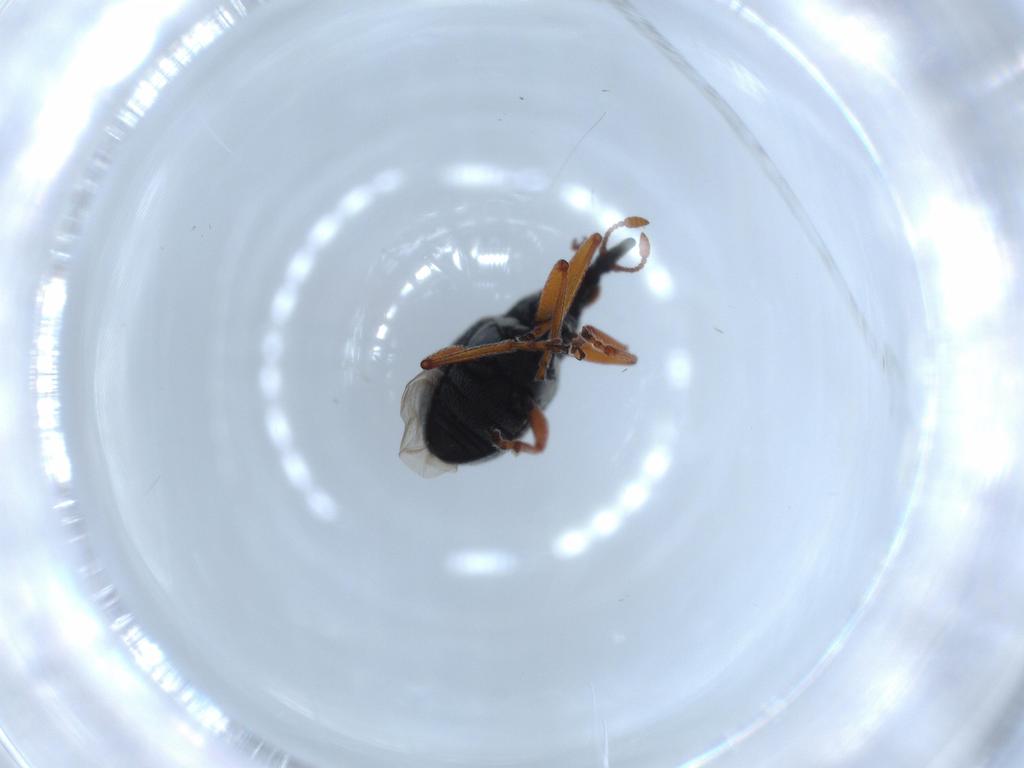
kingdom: Animalia
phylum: Arthropoda
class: Insecta
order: Coleoptera
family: Brentidae
